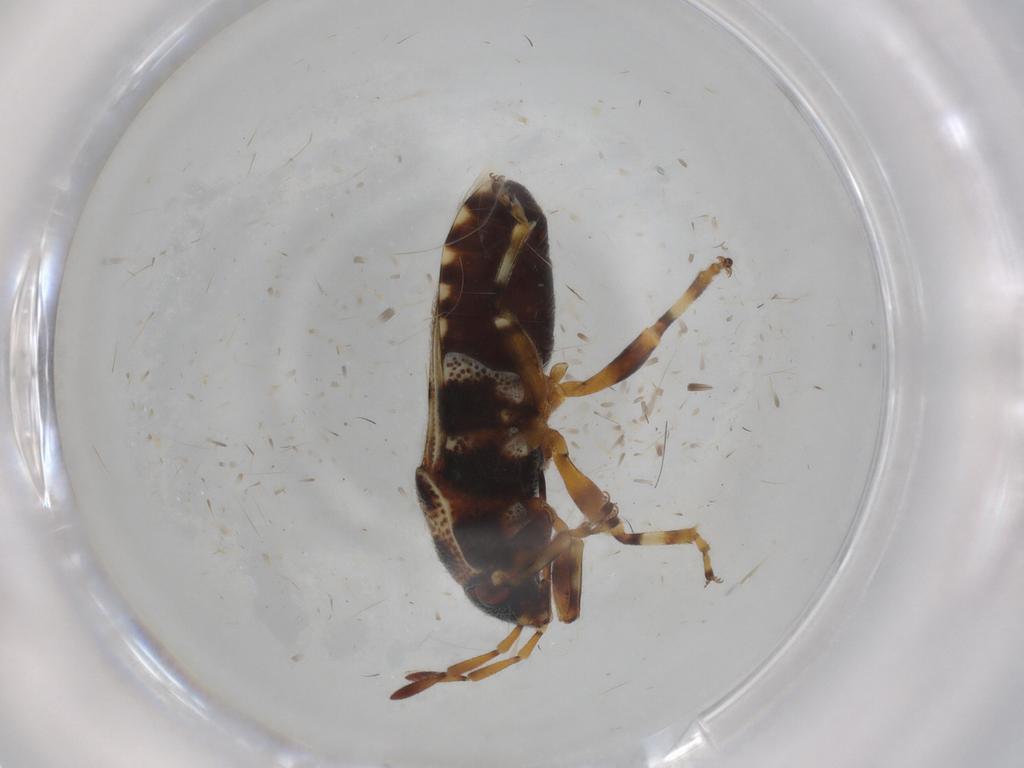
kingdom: Animalia
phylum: Arthropoda
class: Insecta
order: Hemiptera
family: Lygaeidae
